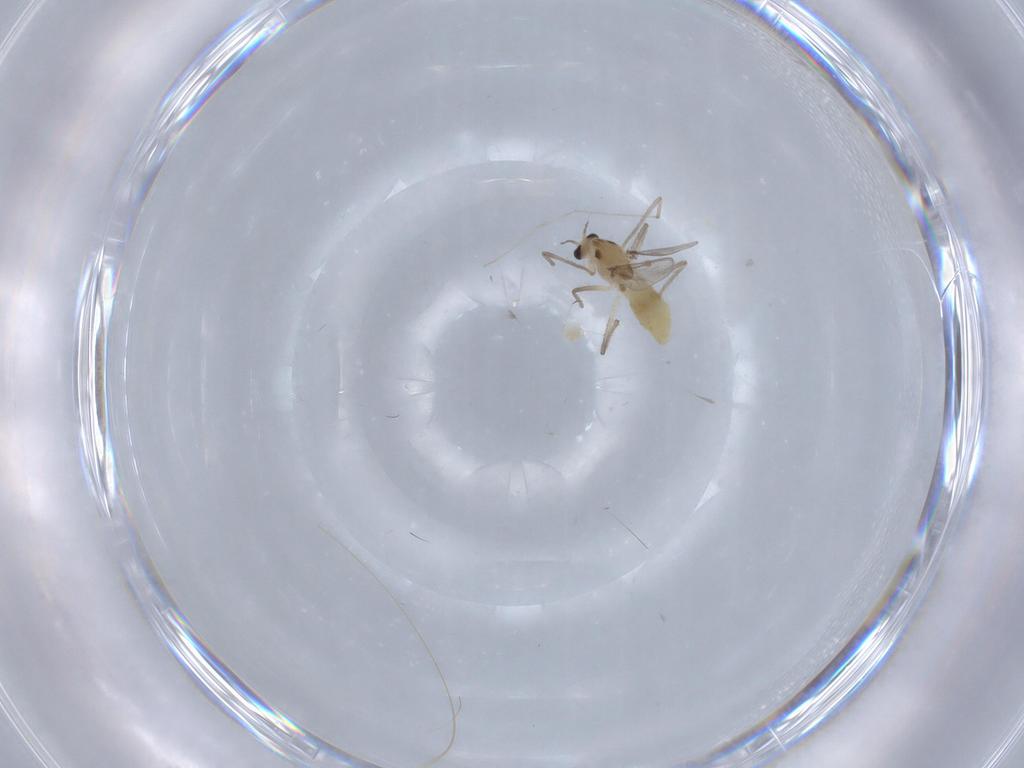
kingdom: Animalia
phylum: Arthropoda
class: Insecta
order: Diptera
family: Chironomidae
